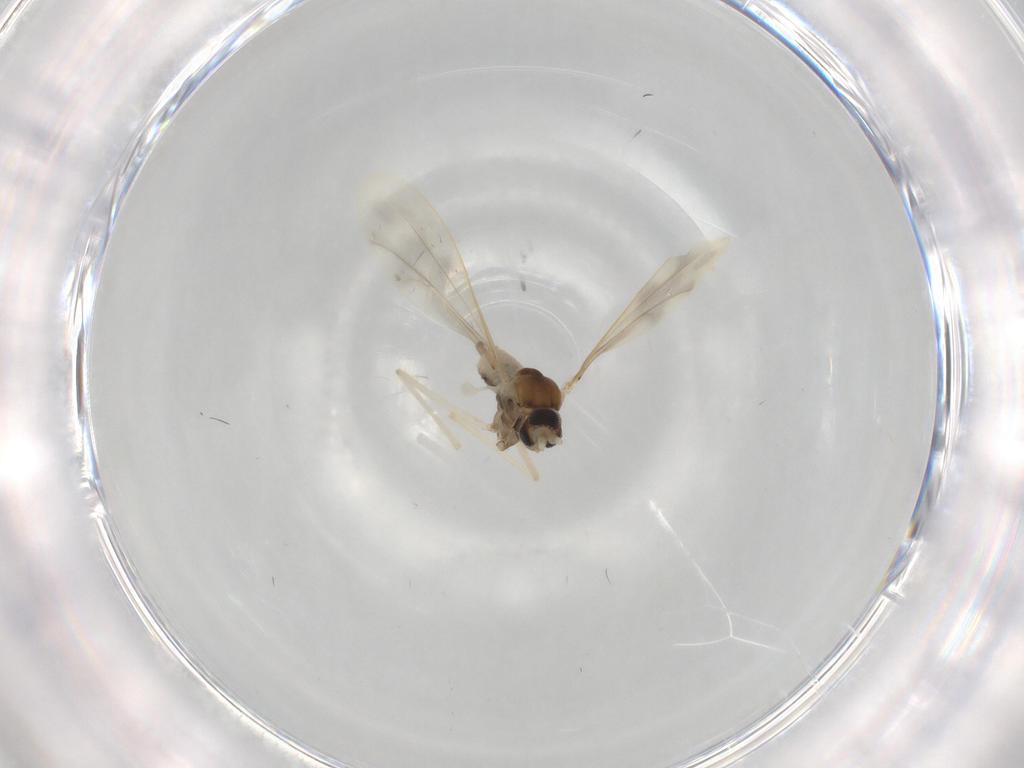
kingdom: Animalia
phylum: Arthropoda
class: Insecta
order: Diptera
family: Cecidomyiidae
